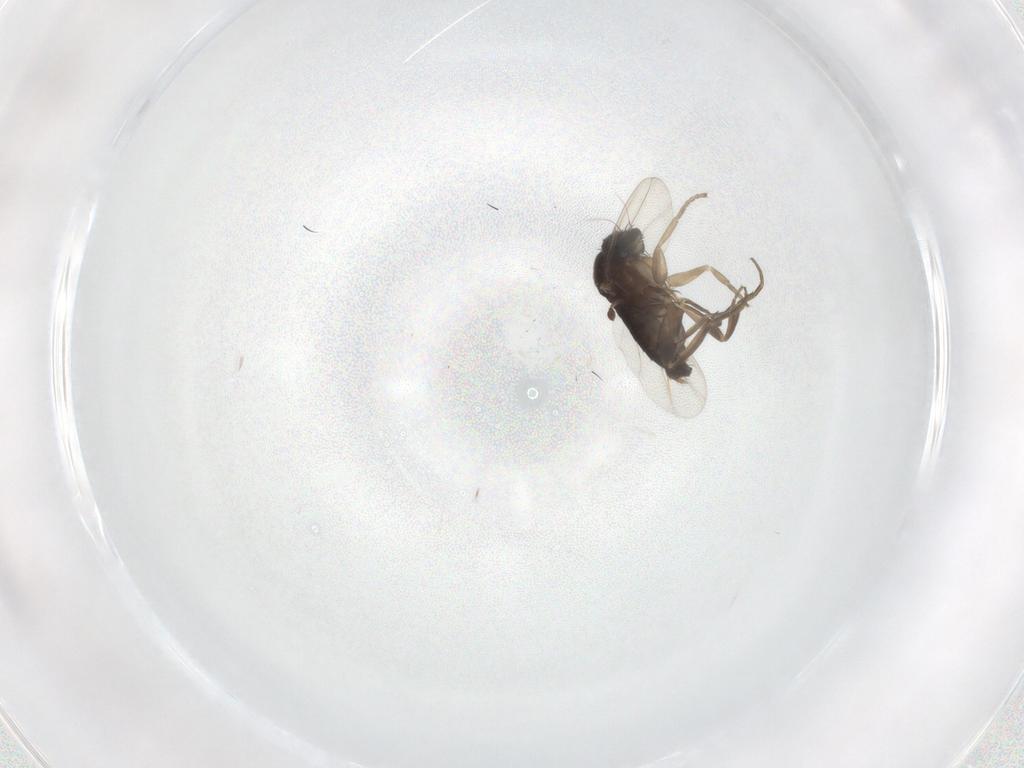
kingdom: Animalia
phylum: Arthropoda
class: Insecta
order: Diptera
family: Phoridae
